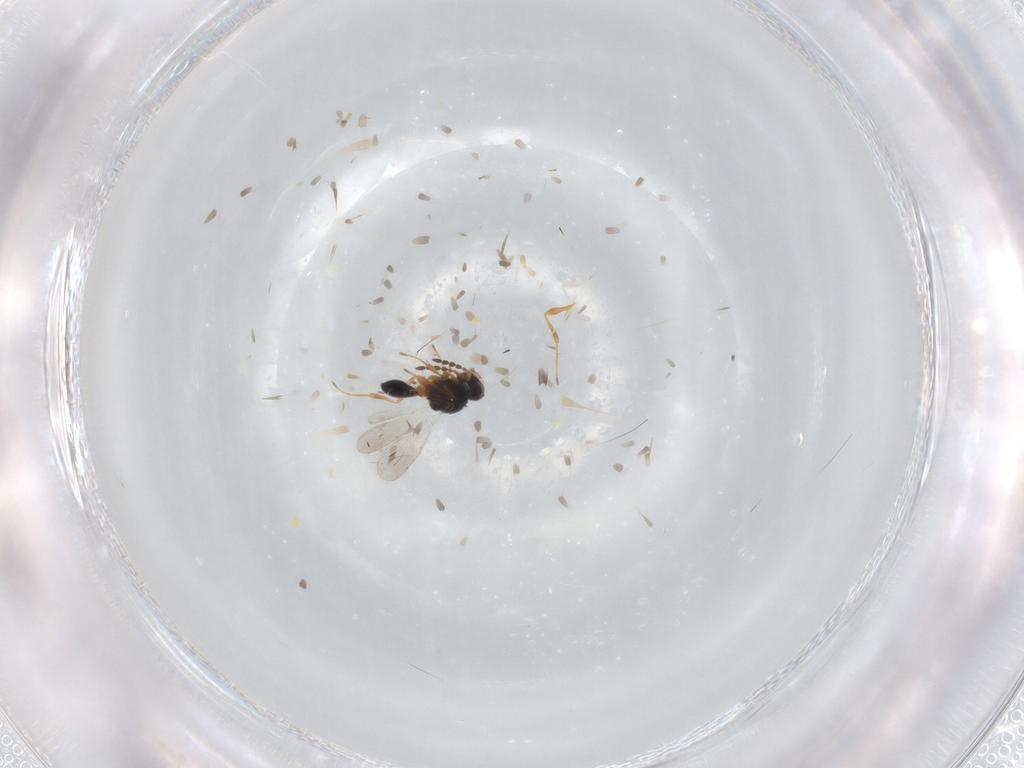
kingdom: Animalia
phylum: Arthropoda
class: Insecta
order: Hymenoptera
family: Platygastridae
